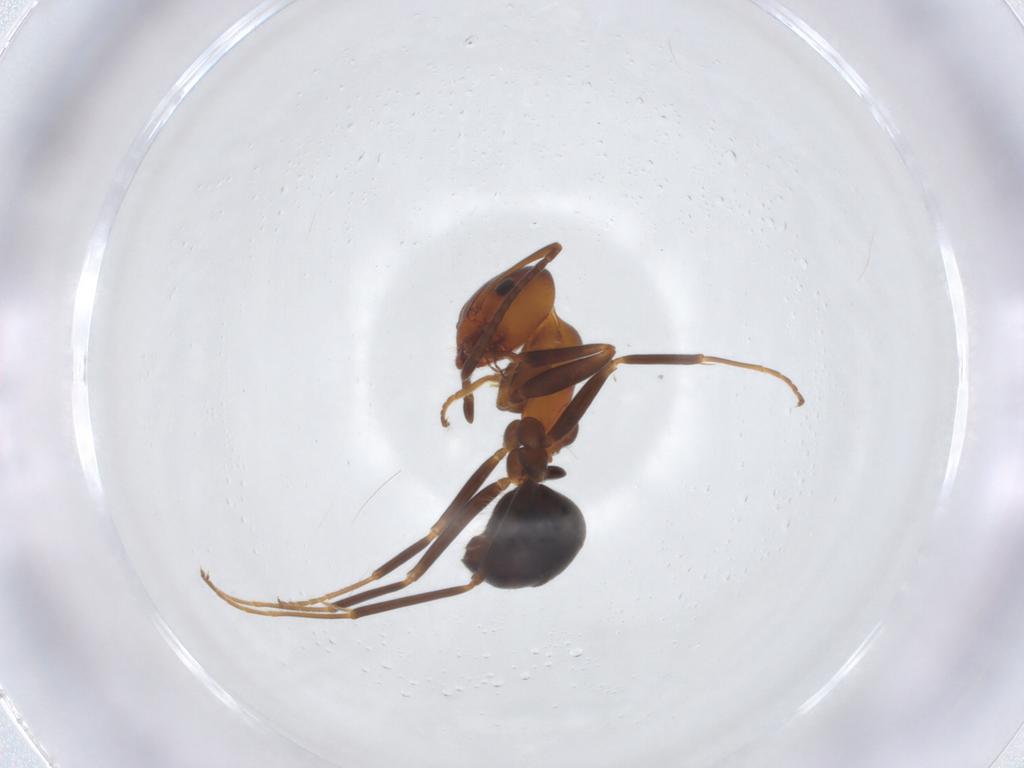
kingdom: Animalia
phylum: Arthropoda
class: Insecta
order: Hymenoptera
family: Formicidae
